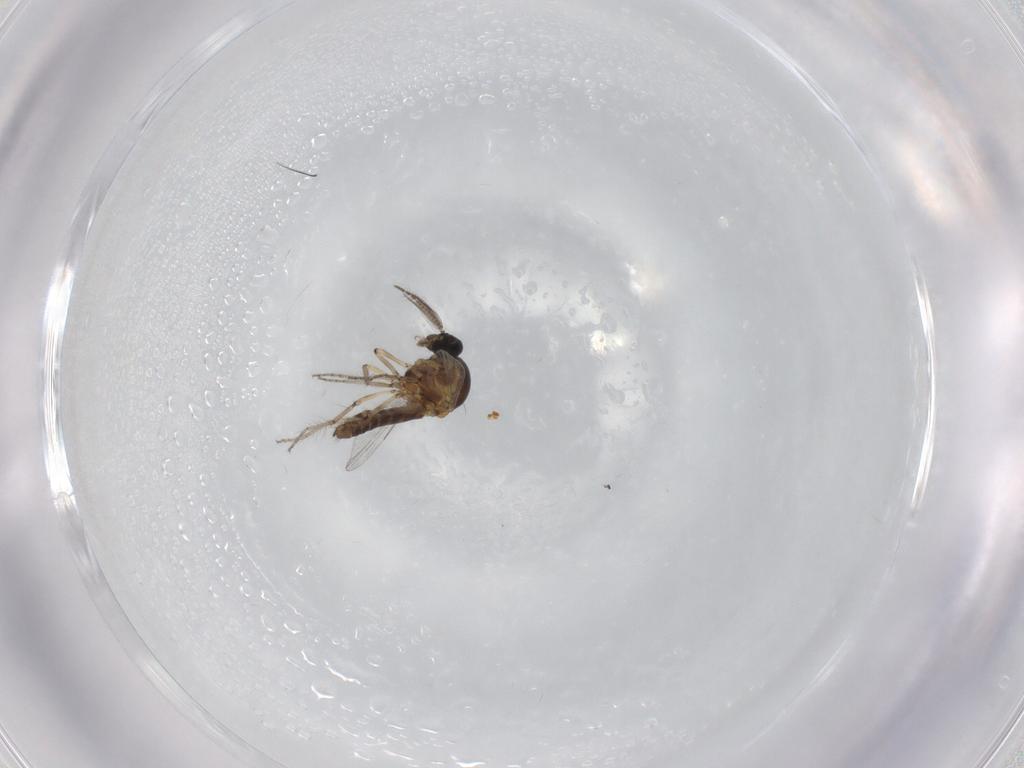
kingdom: Animalia
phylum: Arthropoda
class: Insecta
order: Diptera
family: Ceratopogonidae
